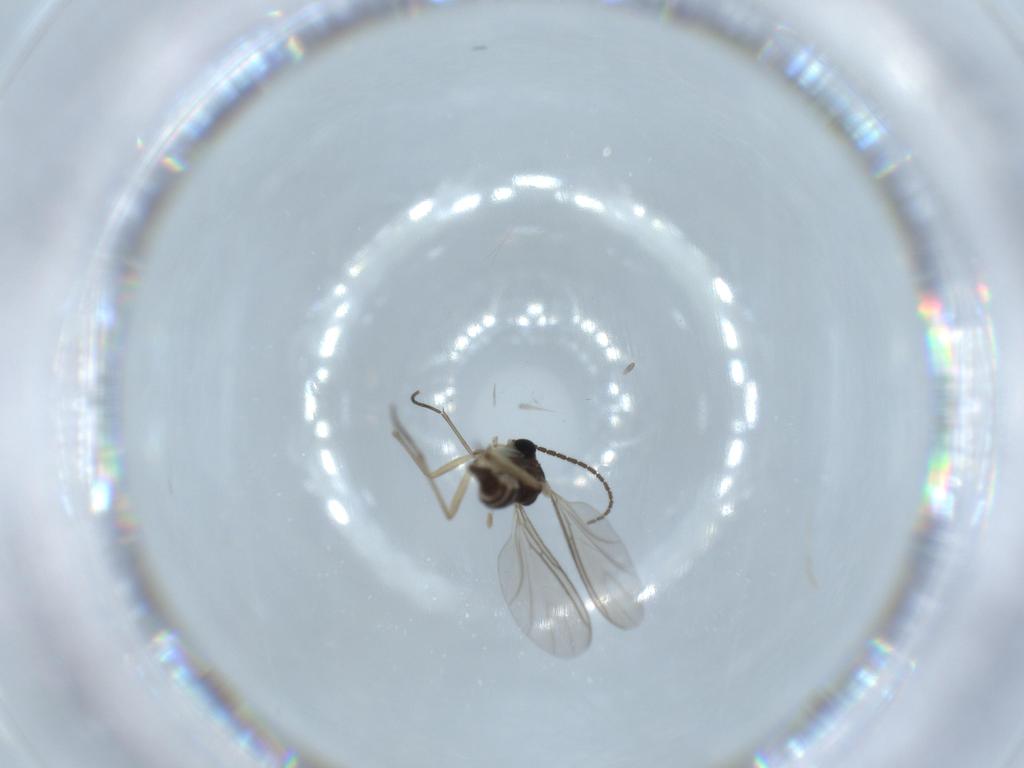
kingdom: Animalia
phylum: Arthropoda
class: Insecta
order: Diptera
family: Sciaridae
